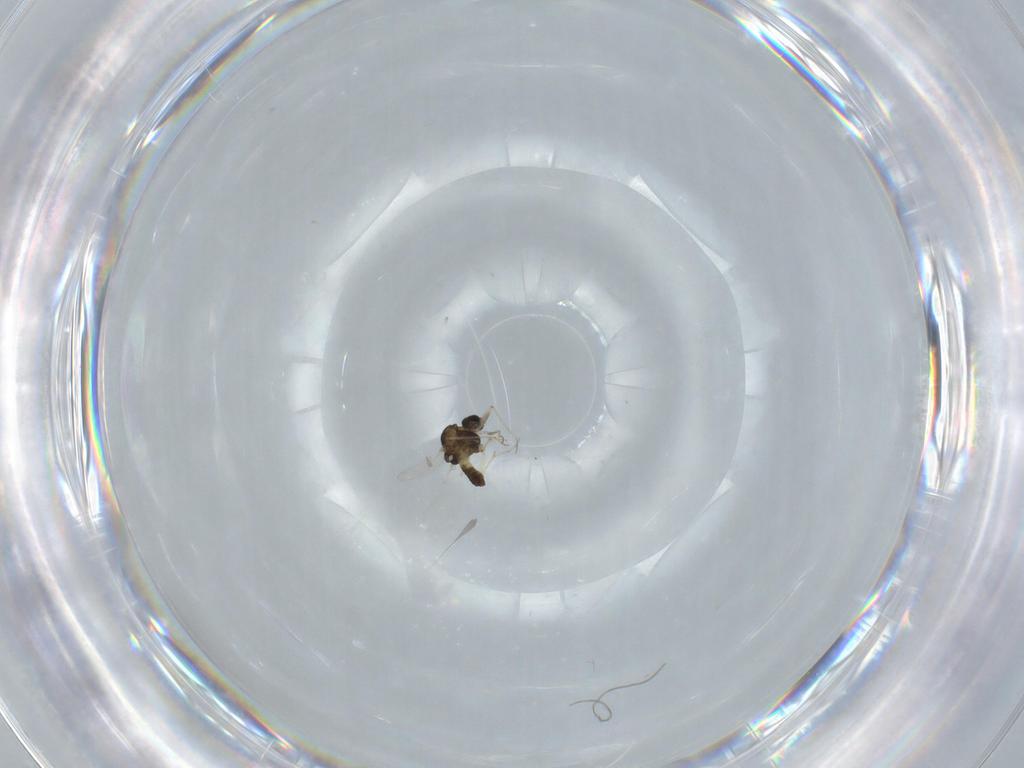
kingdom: Animalia
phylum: Arthropoda
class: Insecta
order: Diptera
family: Chironomidae
